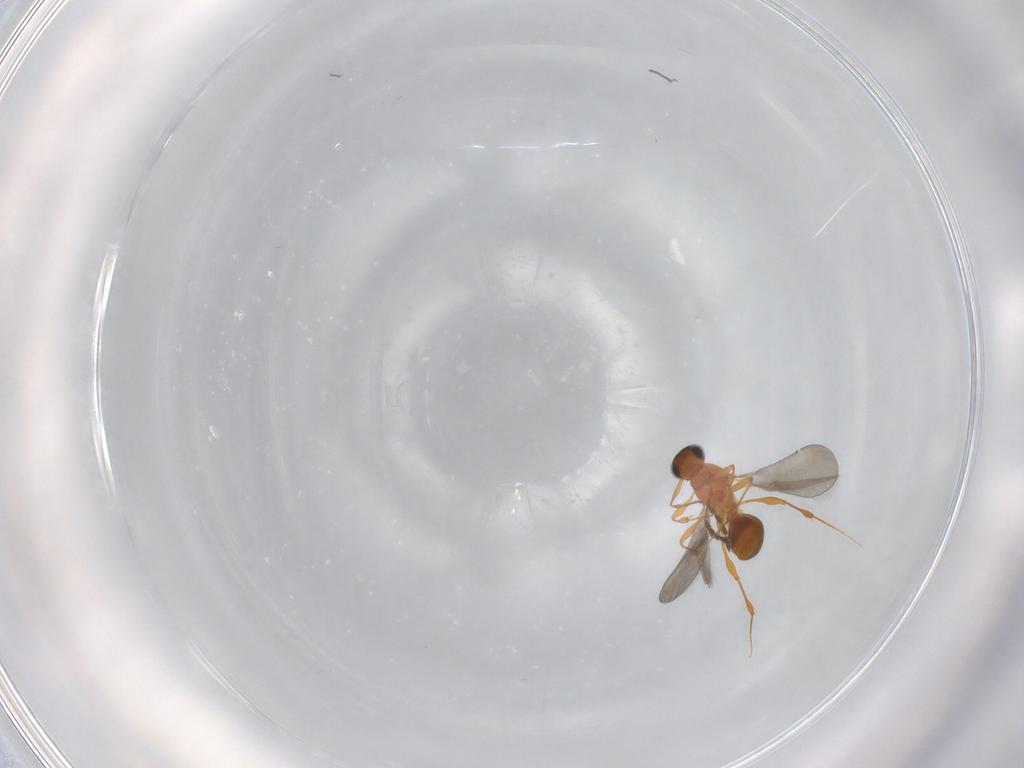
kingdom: Animalia
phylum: Arthropoda
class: Insecta
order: Hymenoptera
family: Platygastridae
